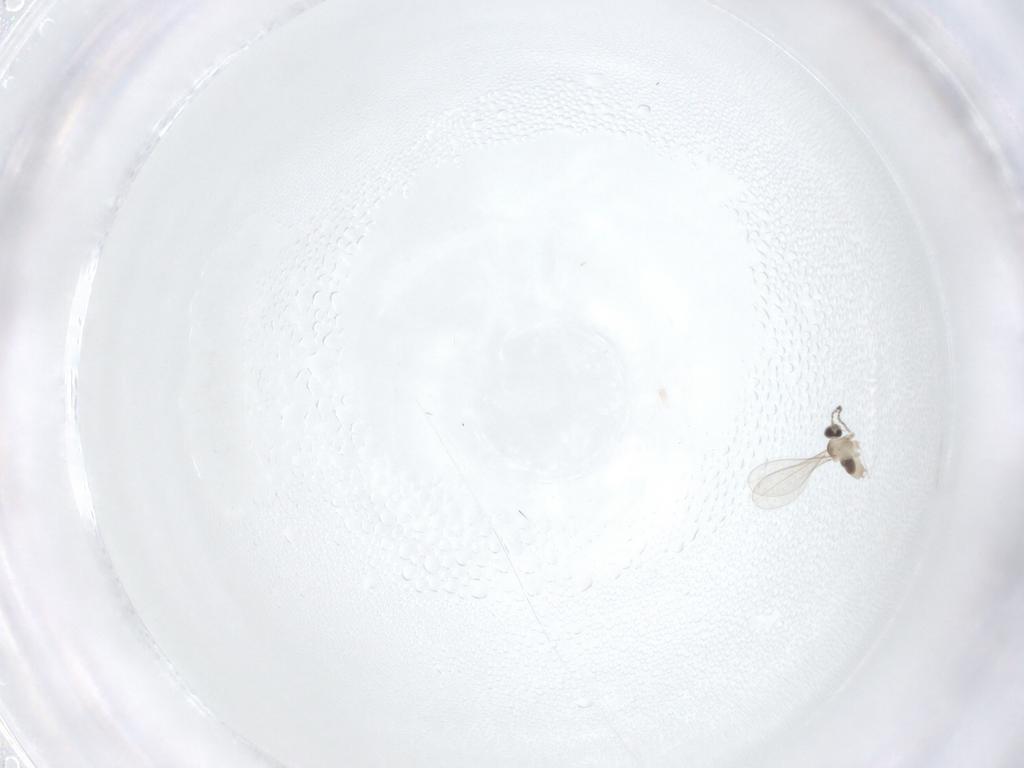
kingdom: Animalia
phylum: Arthropoda
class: Insecta
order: Diptera
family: Cecidomyiidae
